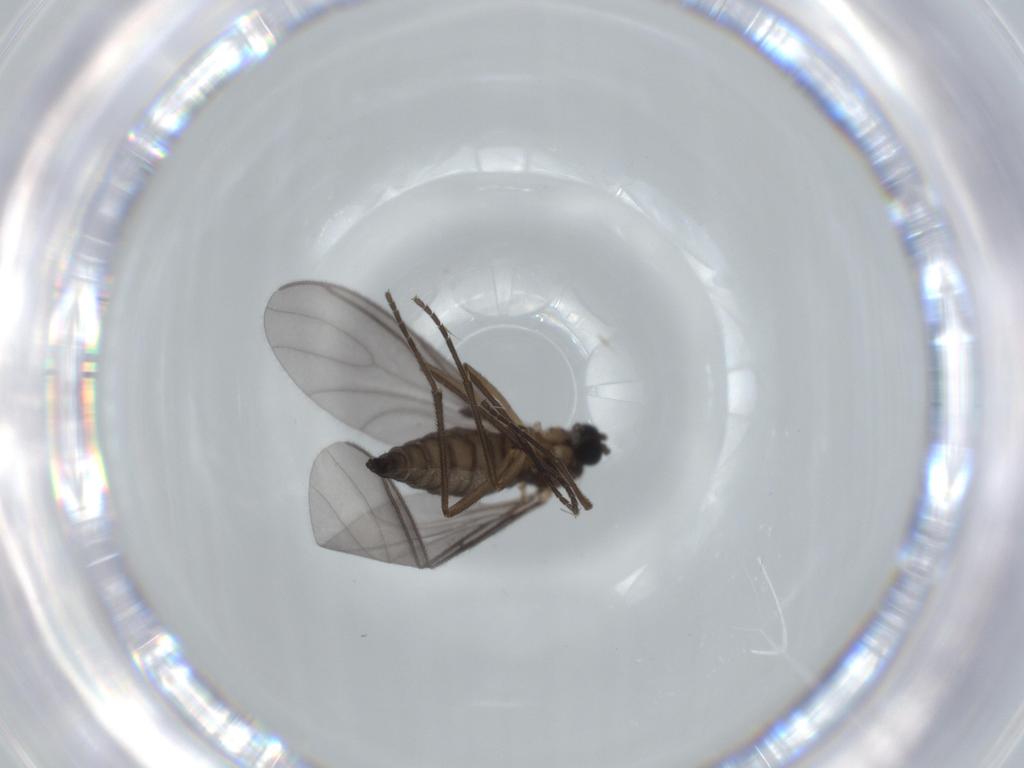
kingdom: Animalia
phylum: Arthropoda
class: Insecta
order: Diptera
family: Sciaridae
